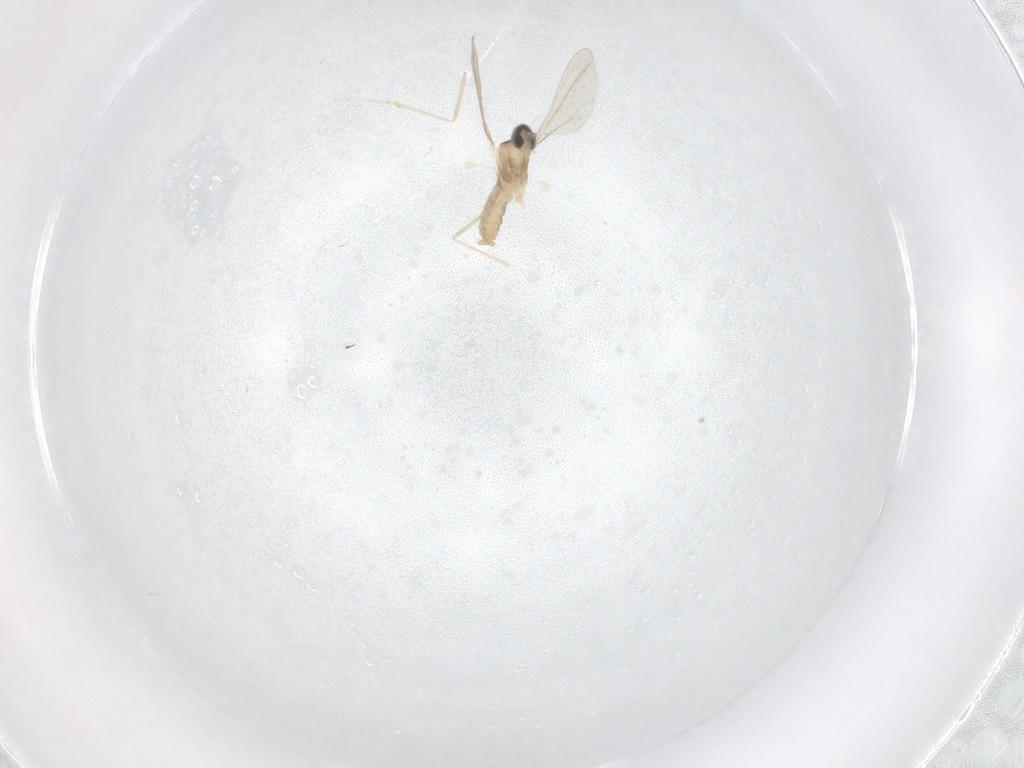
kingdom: Animalia
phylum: Arthropoda
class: Insecta
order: Diptera
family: Cecidomyiidae
